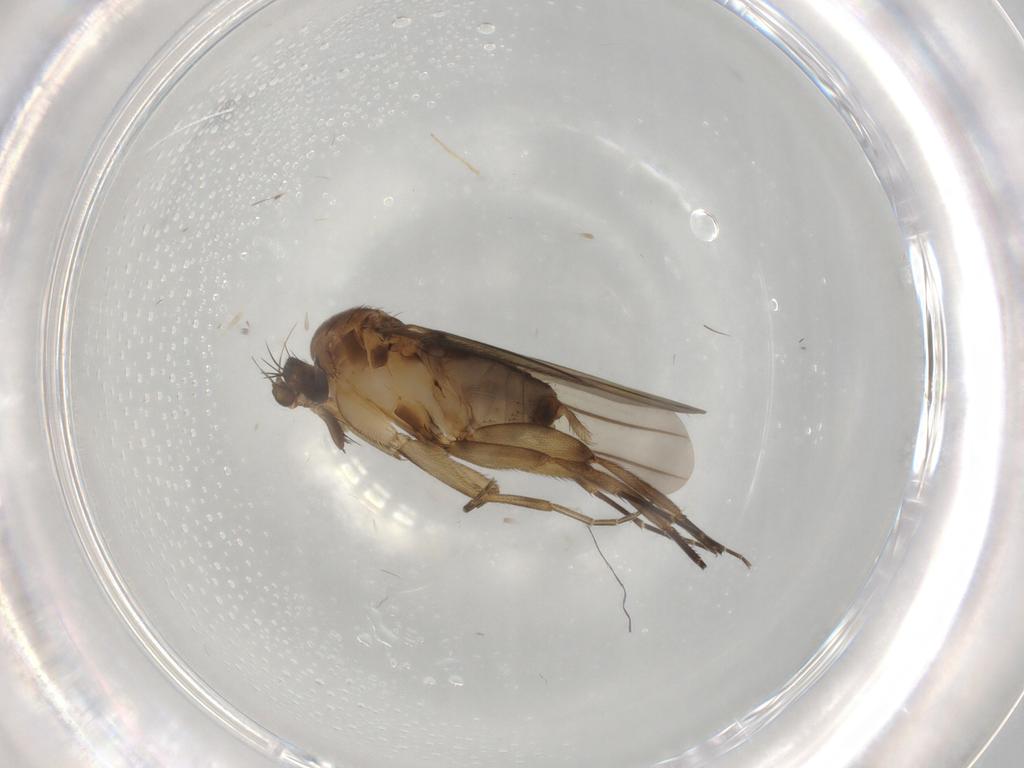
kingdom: Animalia
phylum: Arthropoda
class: Insecta
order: Diptera
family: Phoridae
